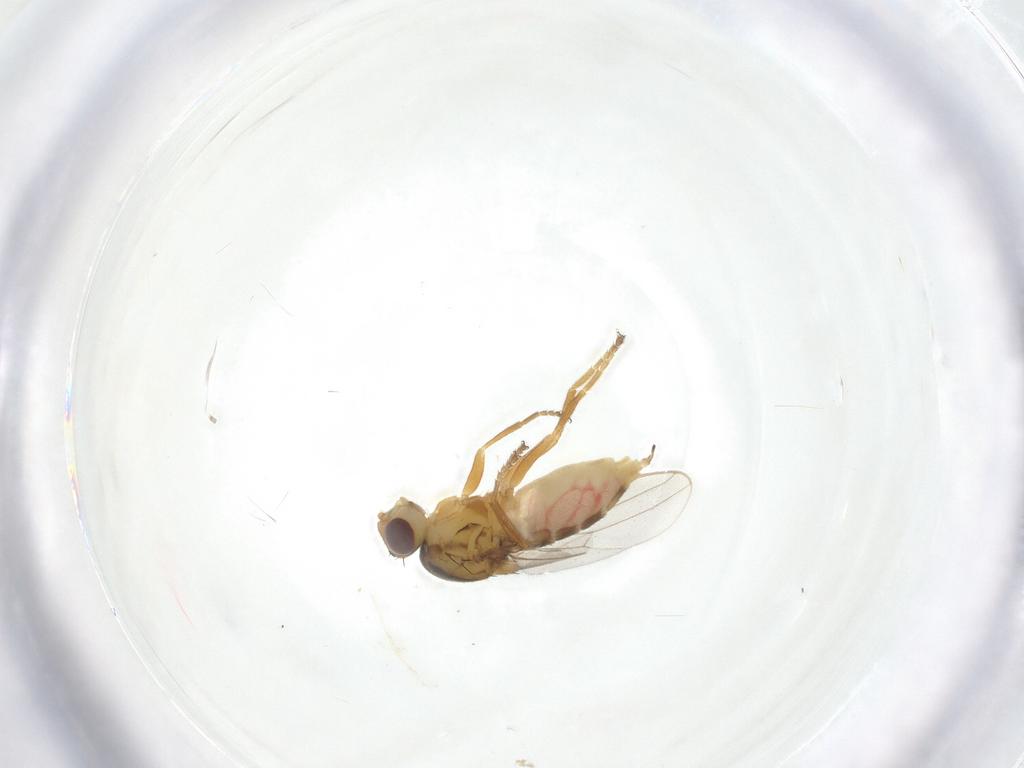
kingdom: Animalia
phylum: Arthropoda
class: Insecta
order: Diptera
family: Chloropidae
